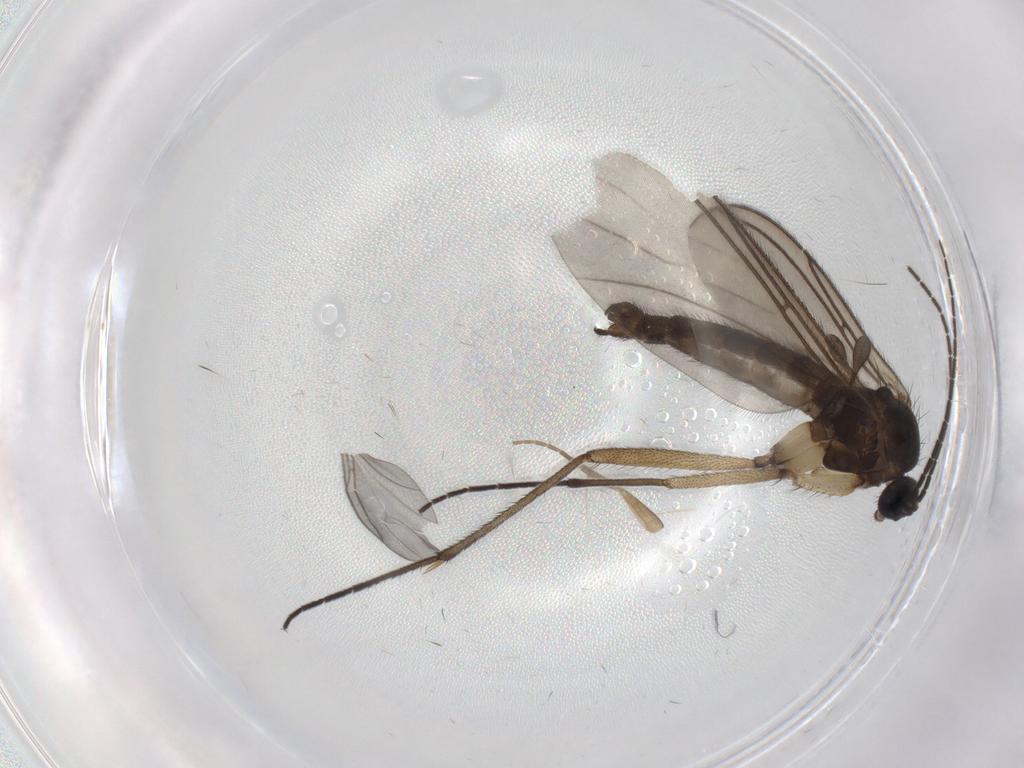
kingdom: Animalia
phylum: Arthropoda
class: Insecta
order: Diptera
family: Sciaridae
